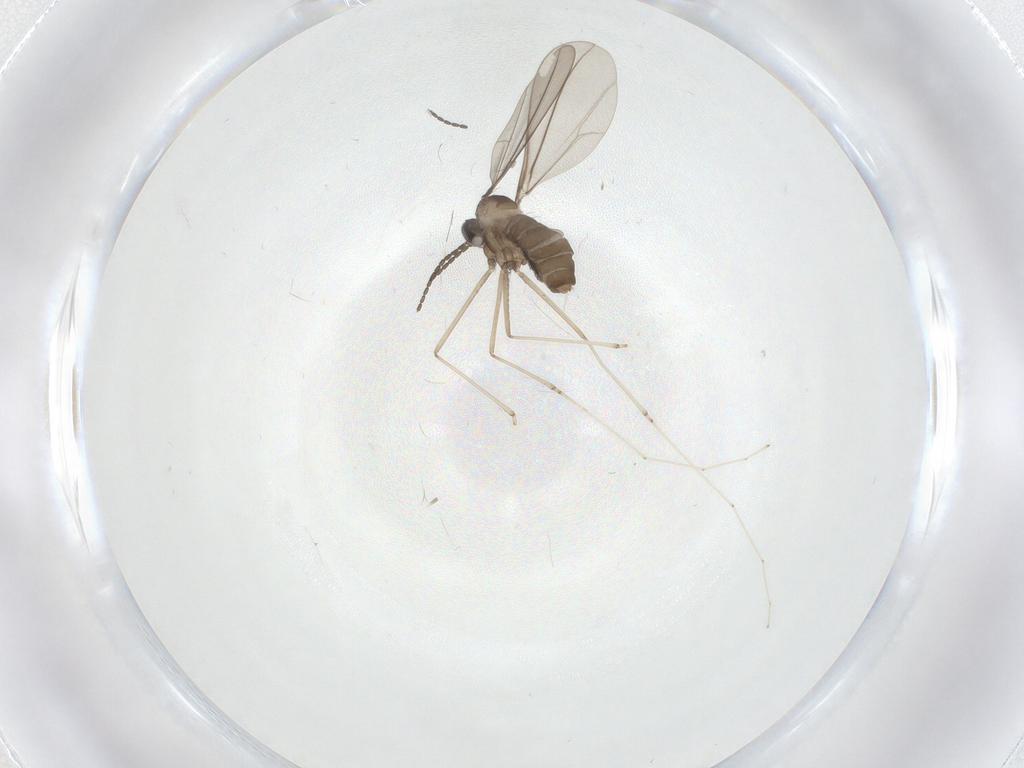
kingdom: Animalia
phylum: Arthropoda
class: Insecta
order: Diptera
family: Cecidomyiidae
